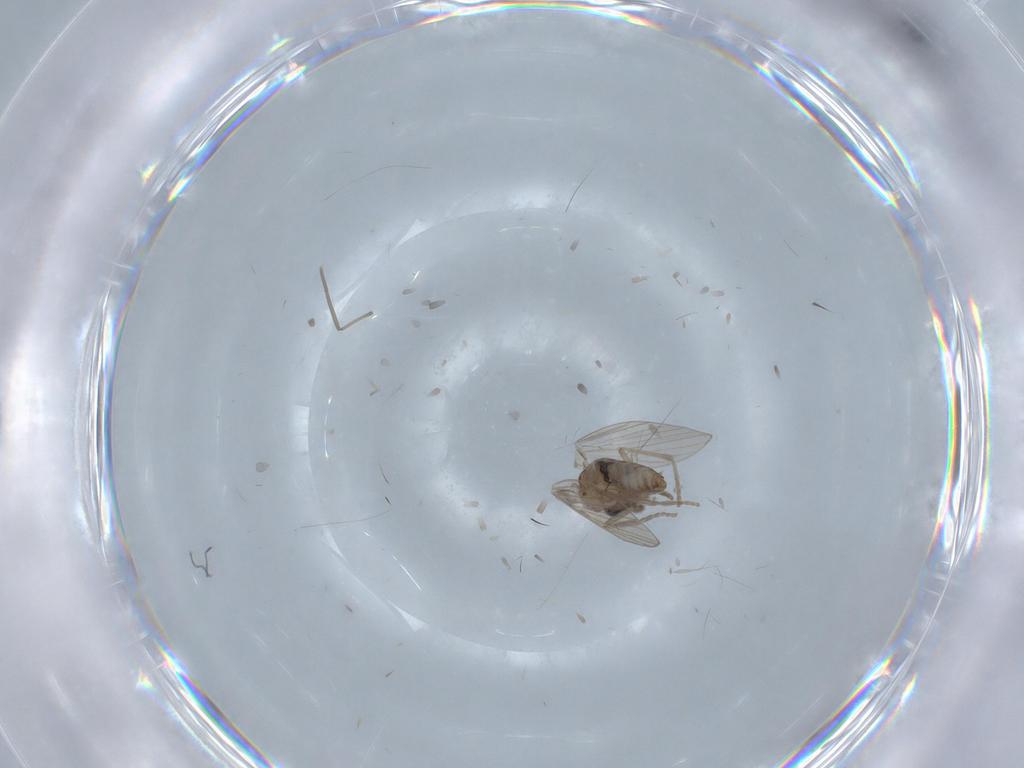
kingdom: Animalia
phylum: Arthropoda
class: Insecta
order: Diptera
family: Psychodidae
